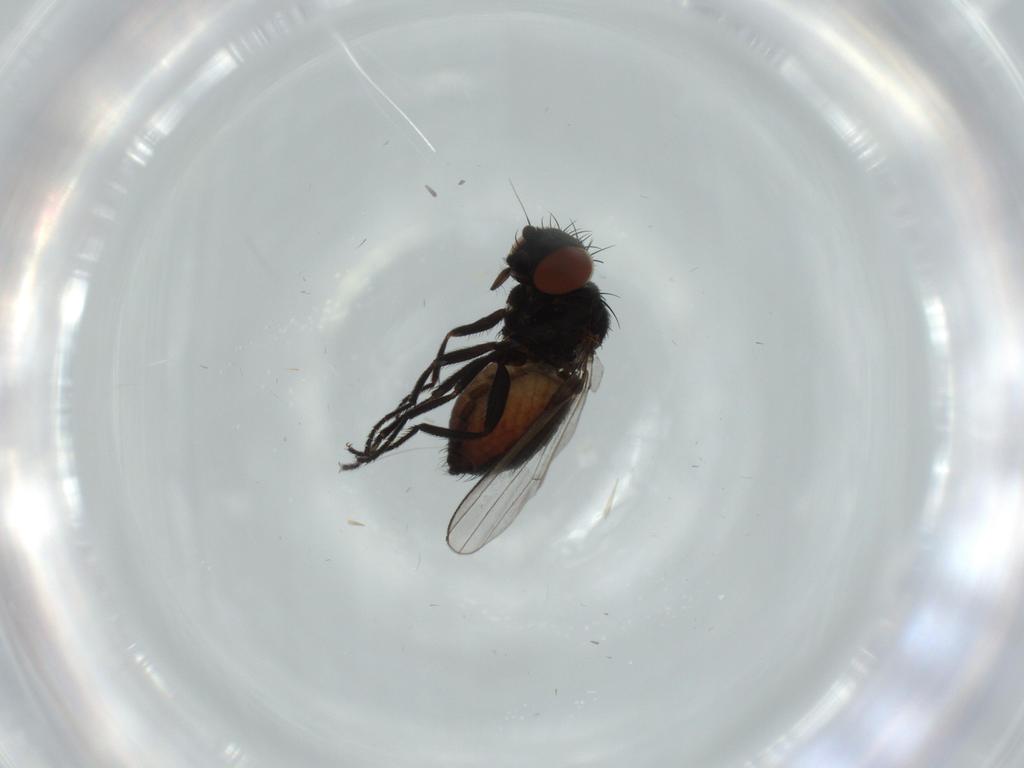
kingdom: Animalia
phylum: Arthropoda
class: Insecta
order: Diptera
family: Milichiidae
